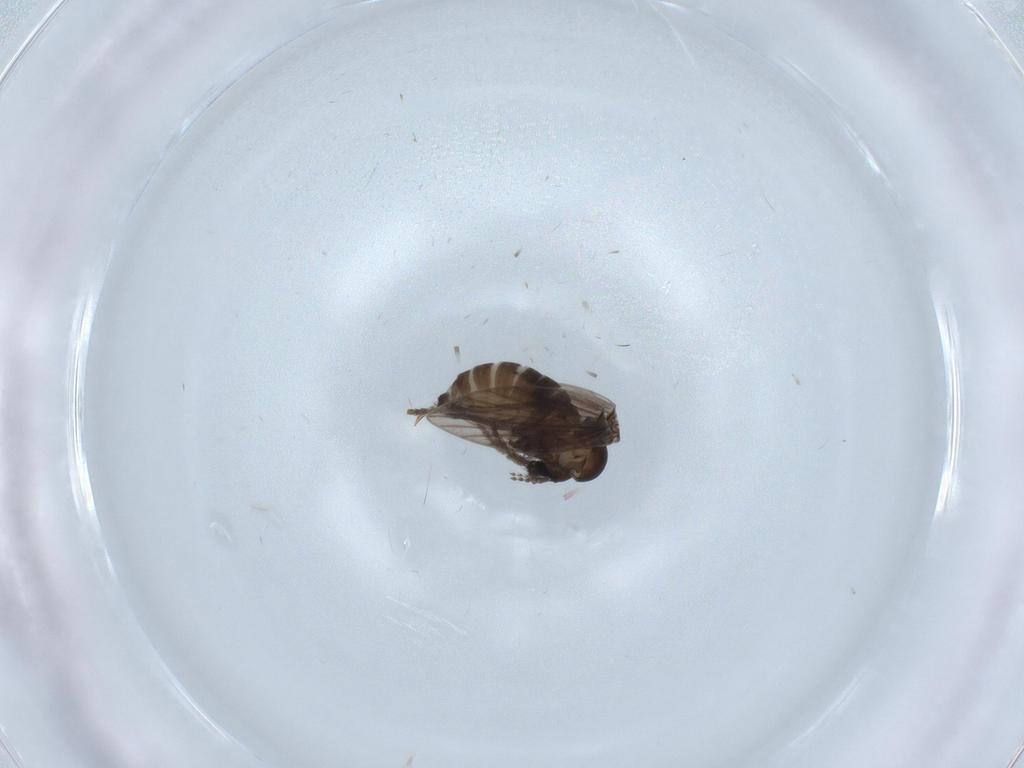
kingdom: Animalia
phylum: Arthropoda
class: Insecta
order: Diptera
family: Psychodidae
